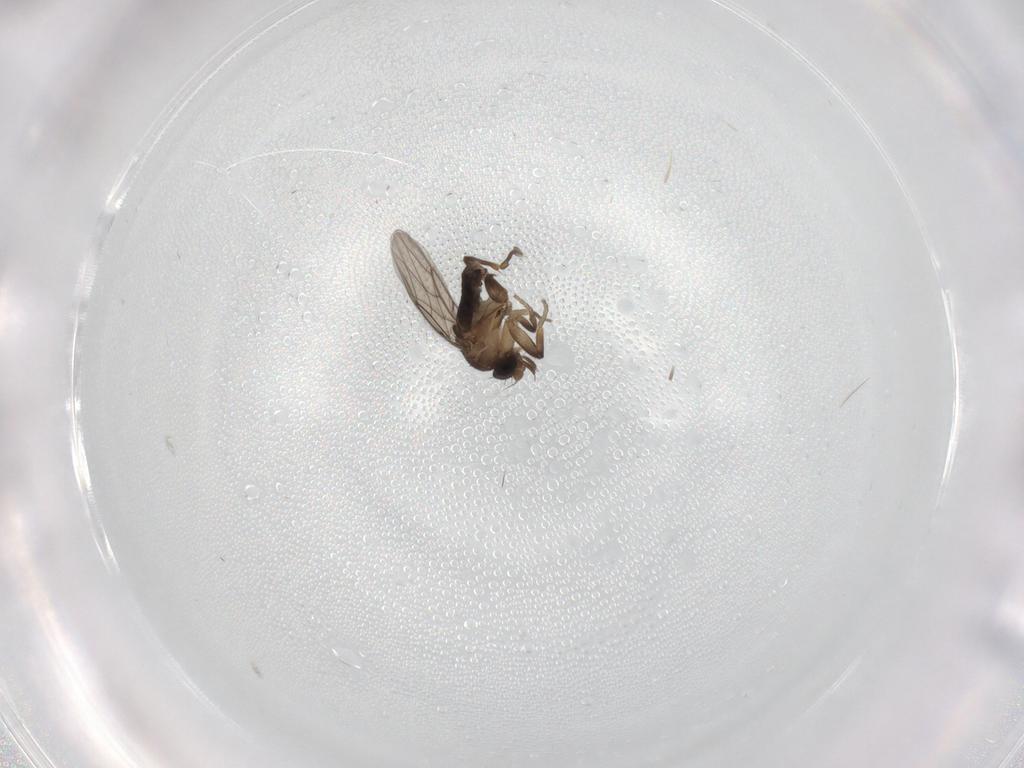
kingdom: Animalia
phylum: Arthropoda
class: Insecta
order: Diptera
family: Phoridae
